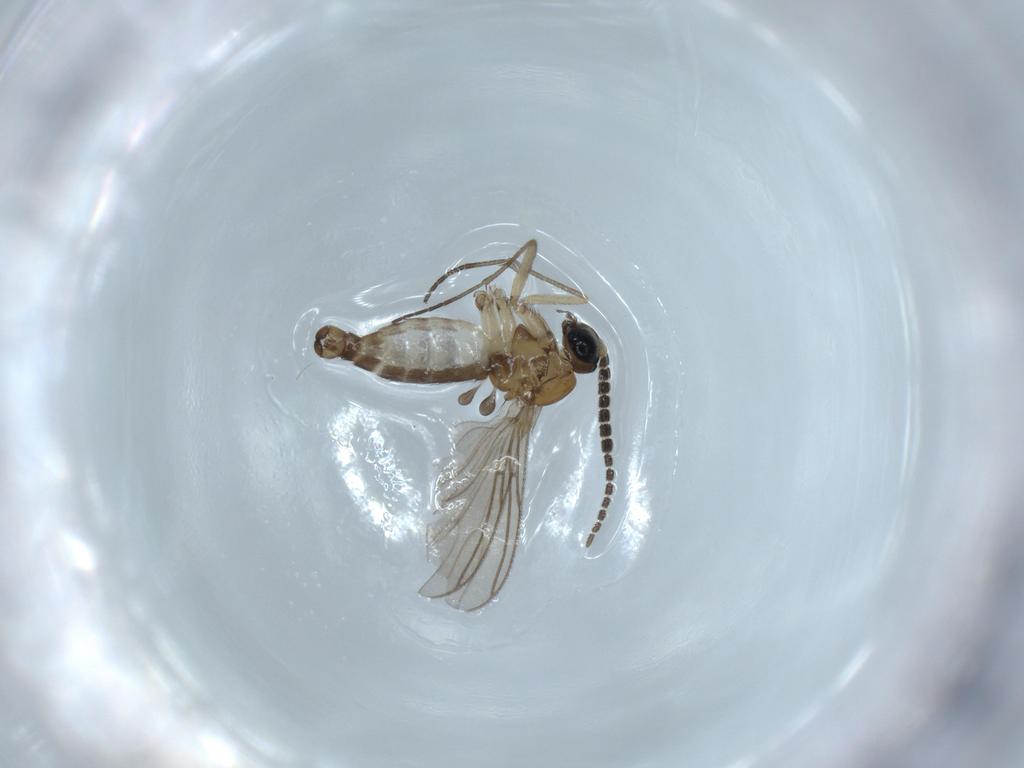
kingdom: Animalia
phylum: Arthropoda
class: Insecta
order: Diptera
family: Sciaridae
